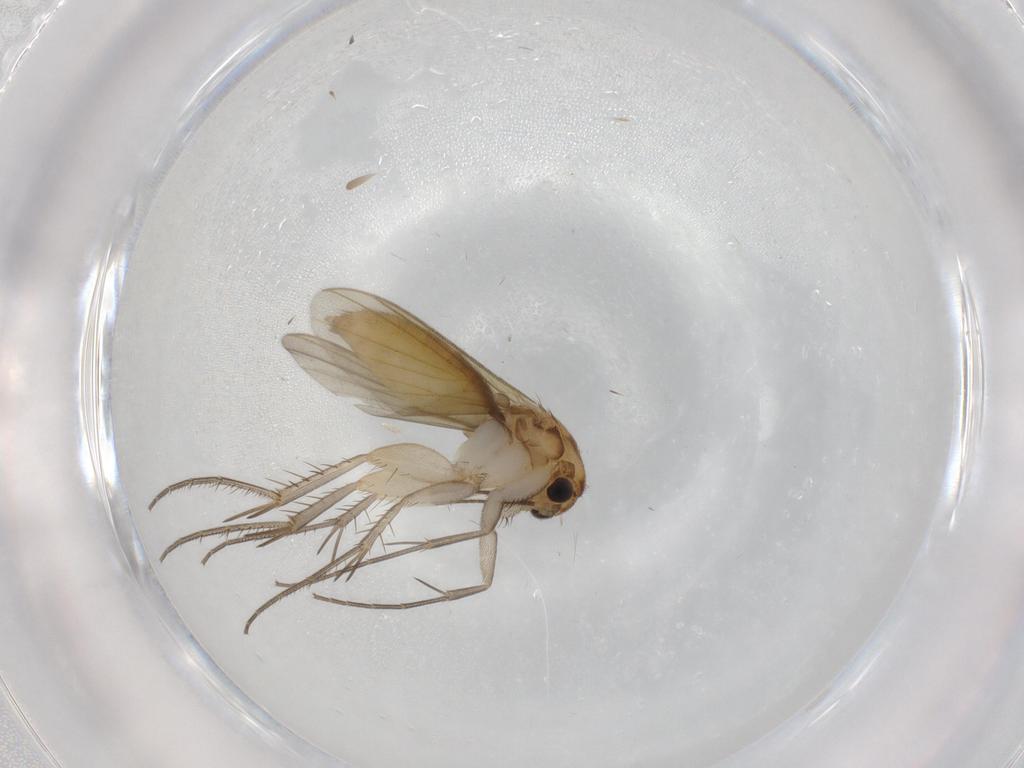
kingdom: Animalia
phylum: Arthropoda
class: Insecta
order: Diptera
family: Mycetophilidae
